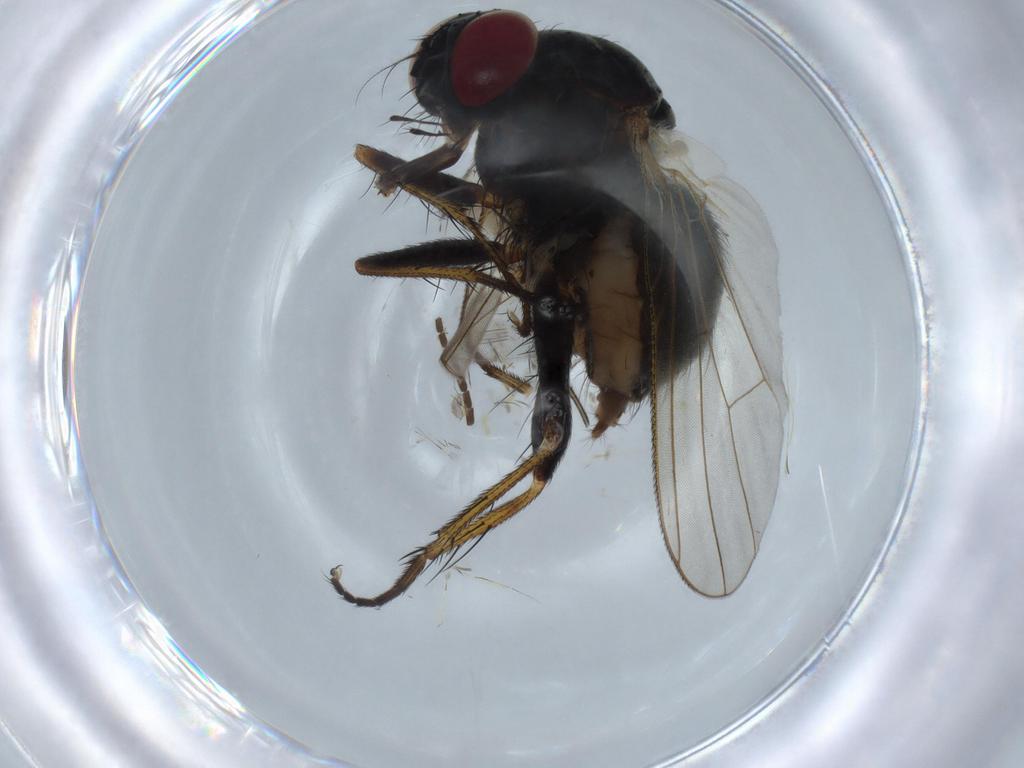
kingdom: Animalia
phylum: Arthropoda
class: Insecta
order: Diptera
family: Mycetophilidae
